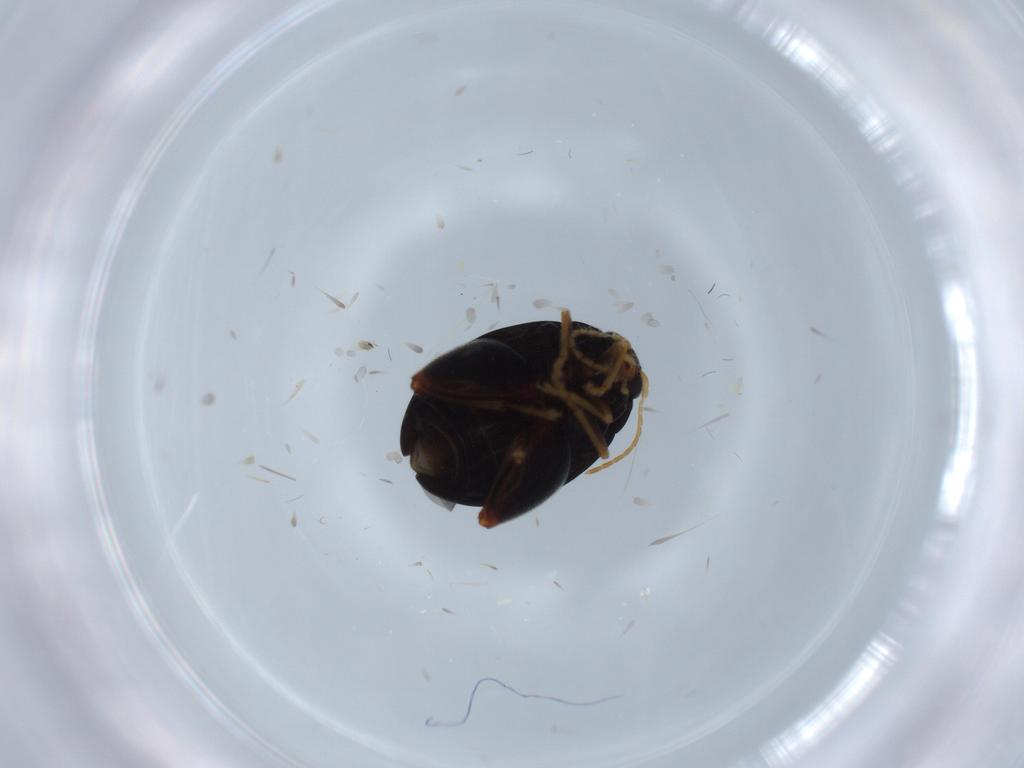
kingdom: Animalia
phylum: Arthropoda
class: Insecta
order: Coleoptera
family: Chrysomelidae
